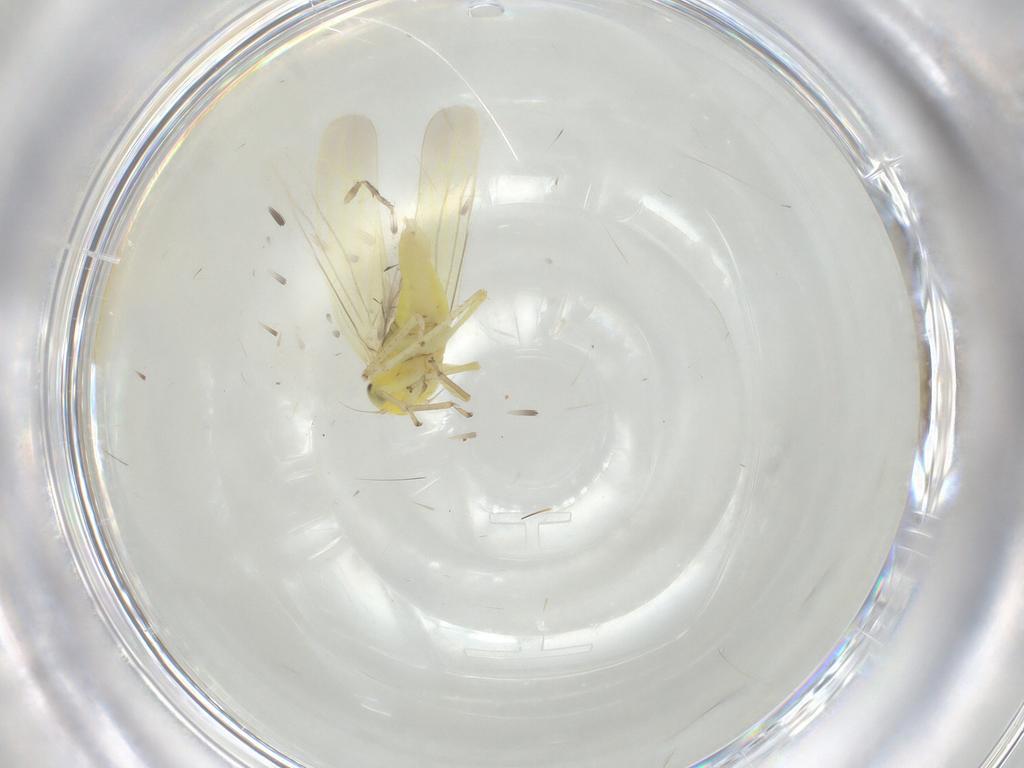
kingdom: Animalia
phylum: Arthropoda
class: Insecta
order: Hemiptera
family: Cicadellidae
